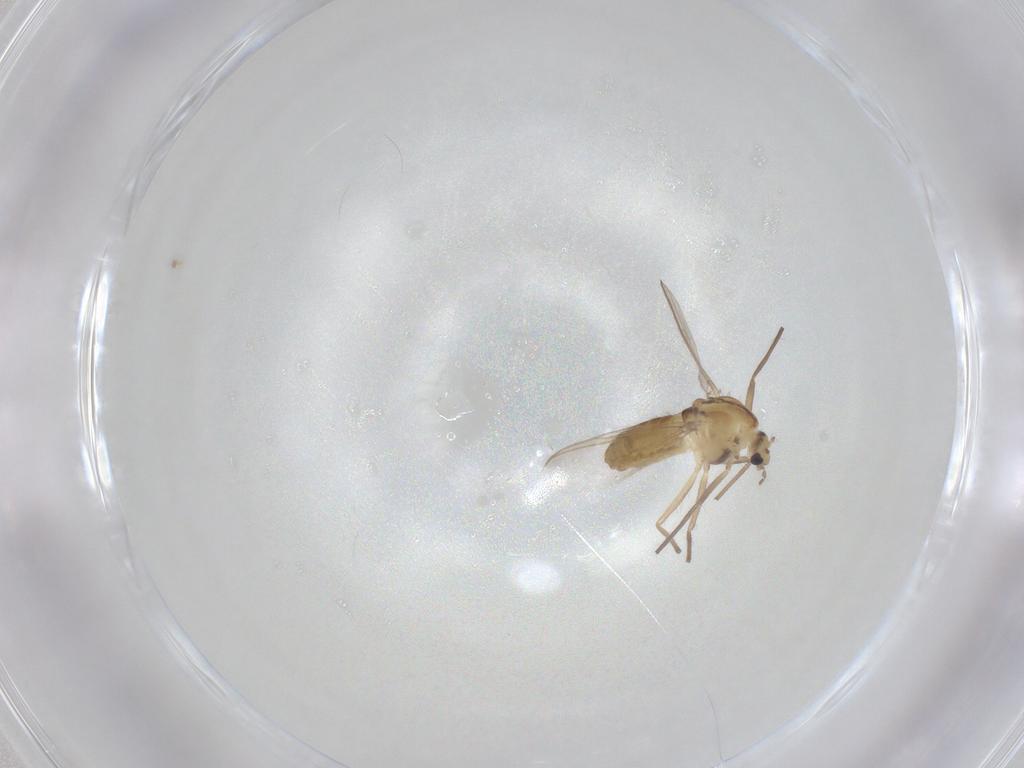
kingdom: Animalia
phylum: Arthropoda
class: Insecta
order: Diptera
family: Chironomidae
